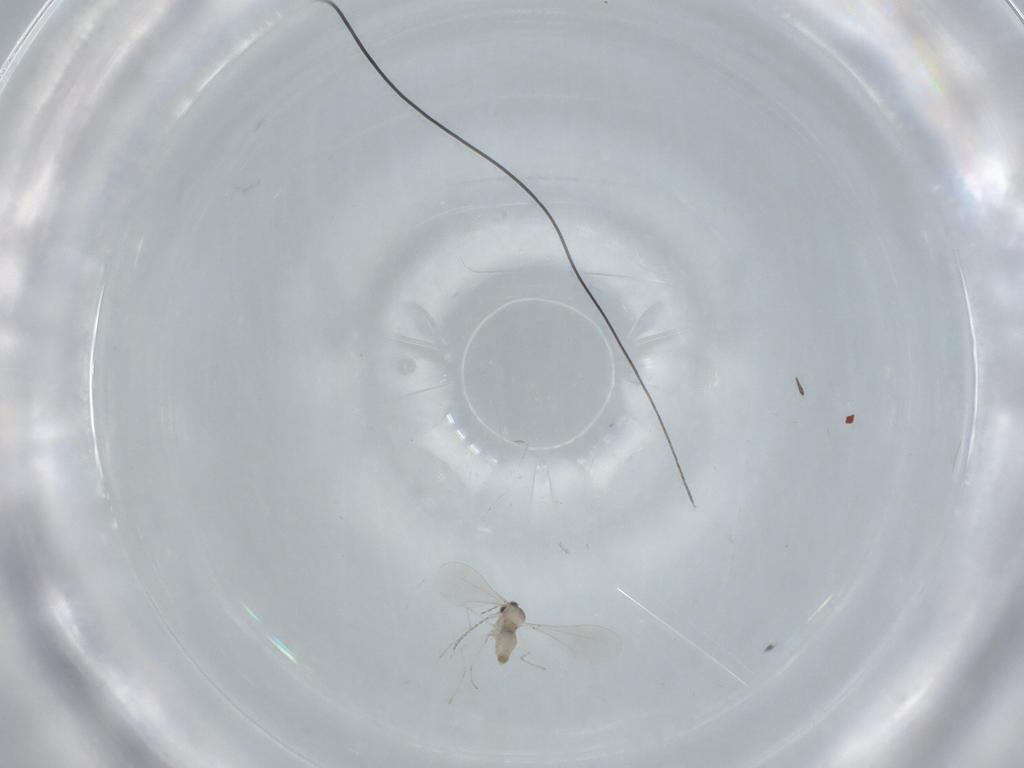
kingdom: Animalia
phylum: Arthropoda
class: Insecta
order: Diptera
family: Cecidomyiidae
